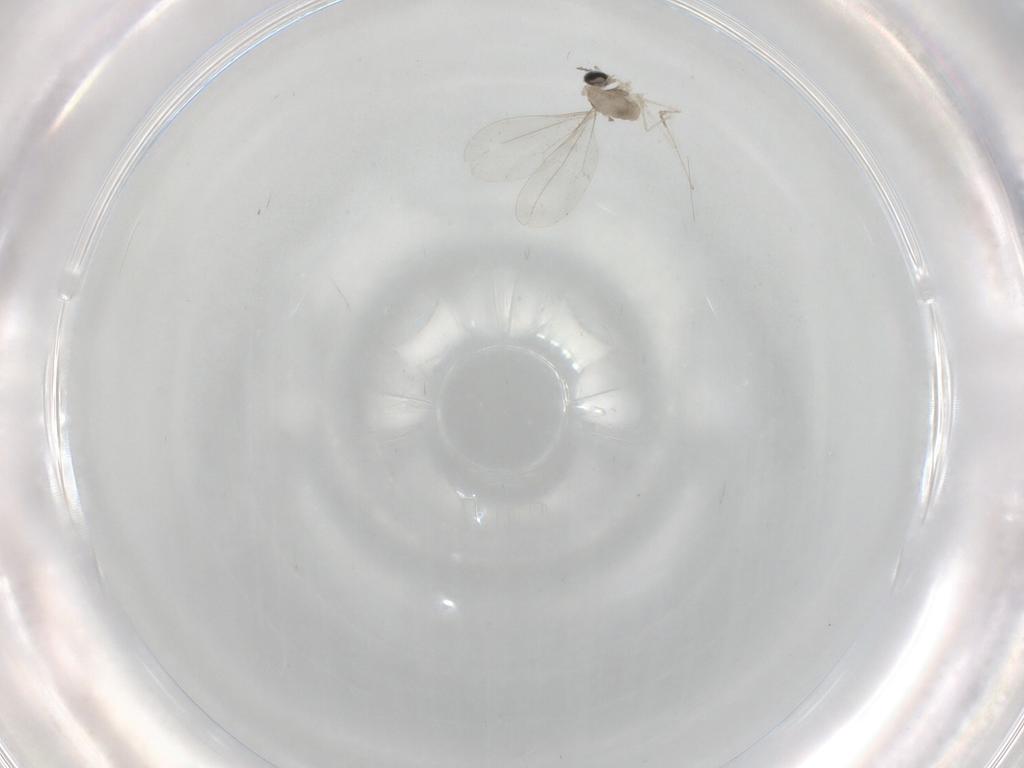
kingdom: Animalia
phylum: Arthropoda
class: Insecta
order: Diptera
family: Cecidomyiidae
